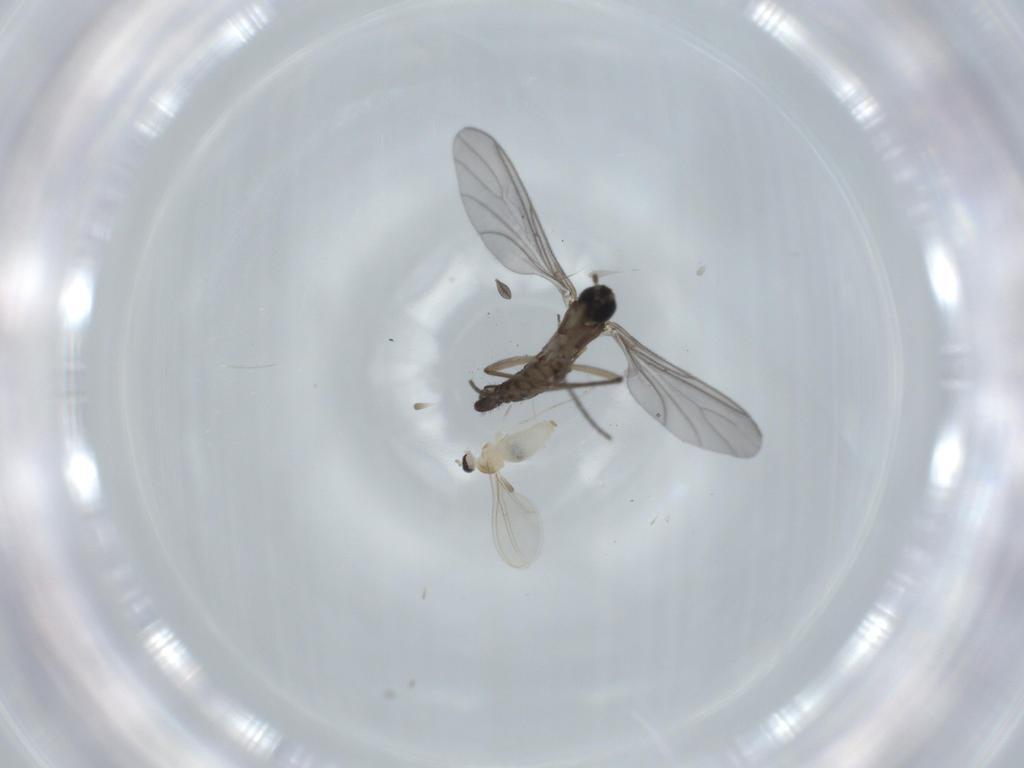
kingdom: Animalia
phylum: Arthropoda
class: Insecta
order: Diptera
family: Cecidomyiidae
